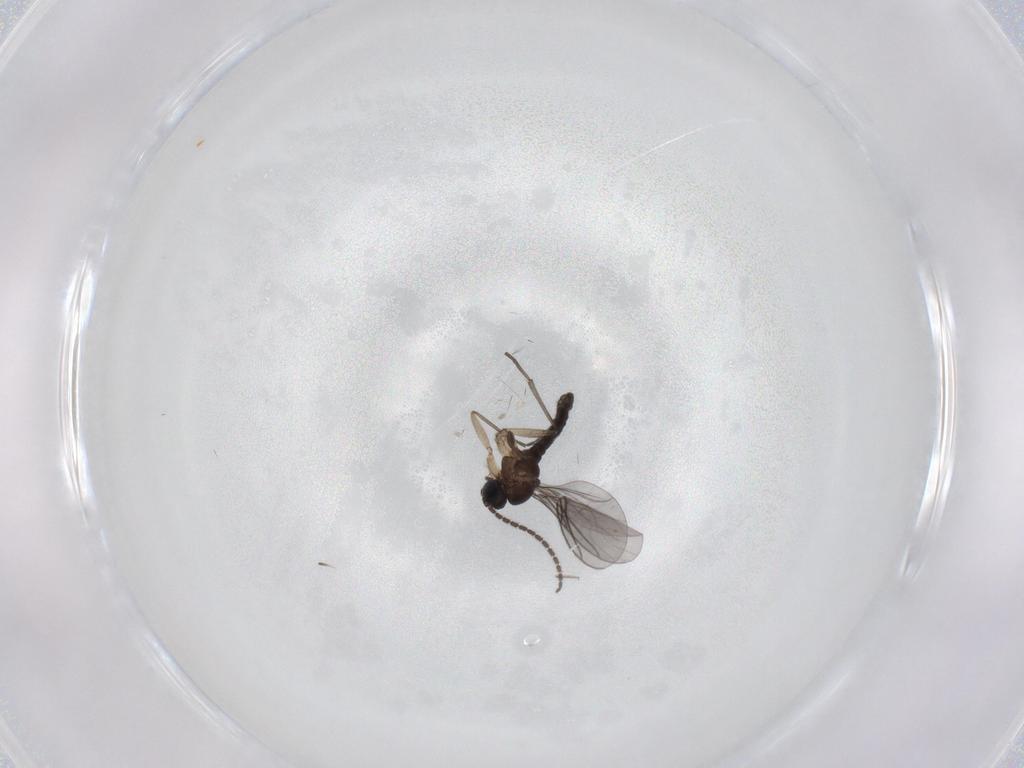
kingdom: Animalia
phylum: Arthropoda
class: Insecta
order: Diptera
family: Sciaridae
